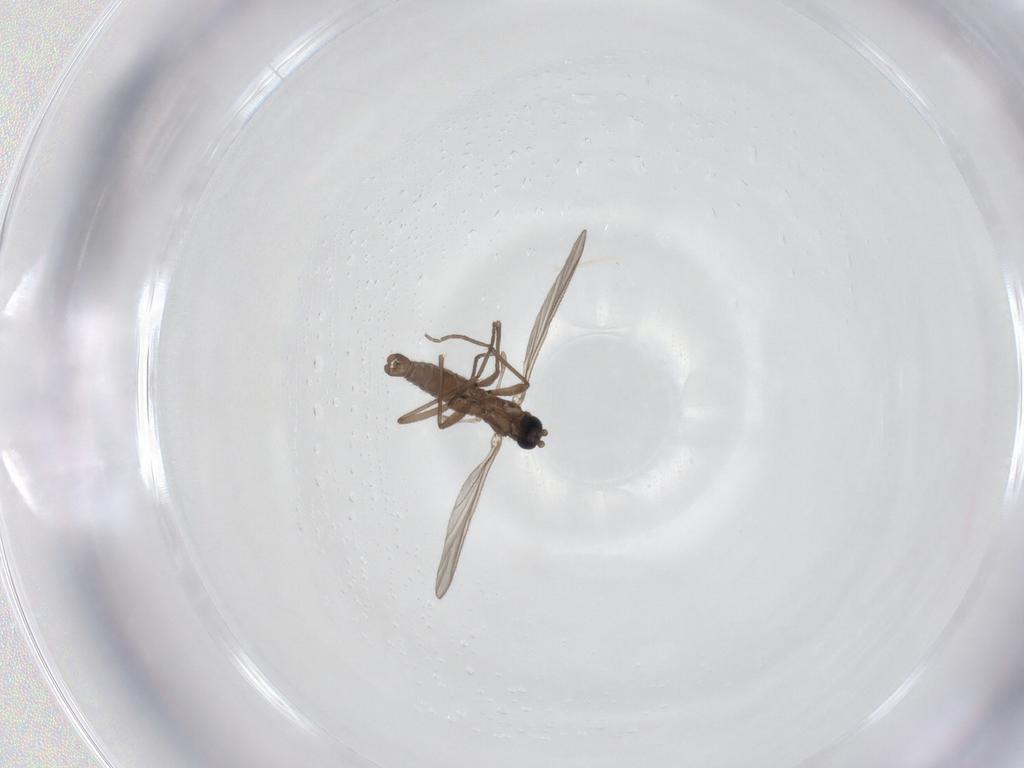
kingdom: Animalia
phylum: Arthropoda
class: Insecta
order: Diptera
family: Sciaridae
